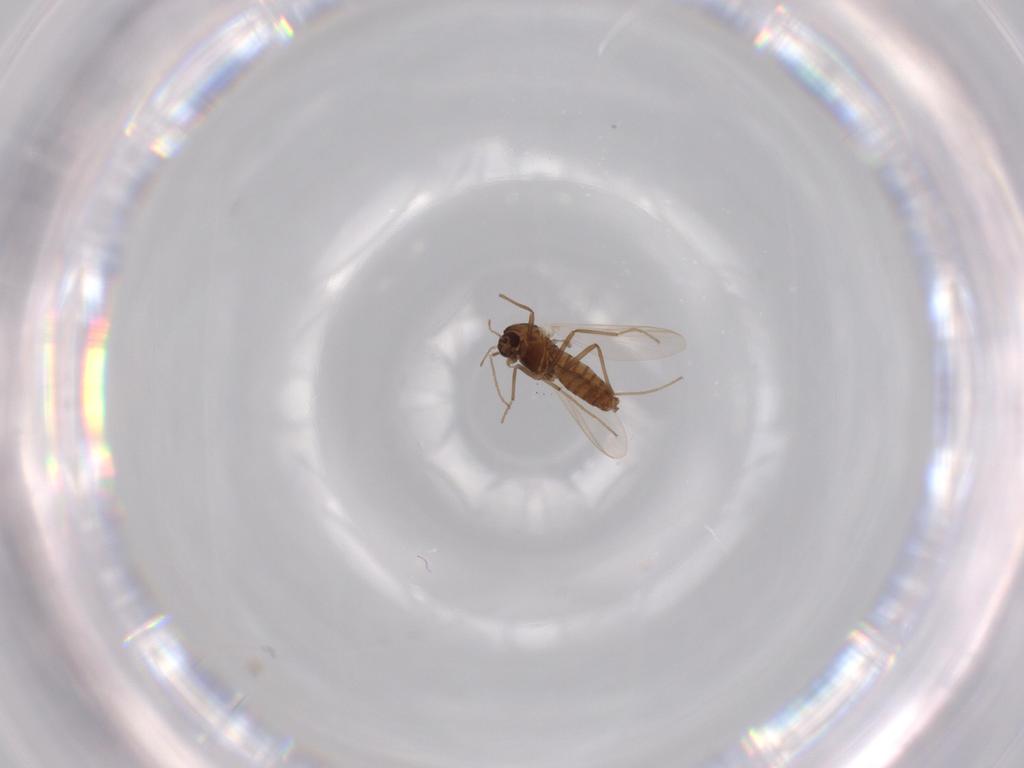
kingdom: Animalia
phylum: Arthropoda
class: Insecta
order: Diptera
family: Chironomidae
